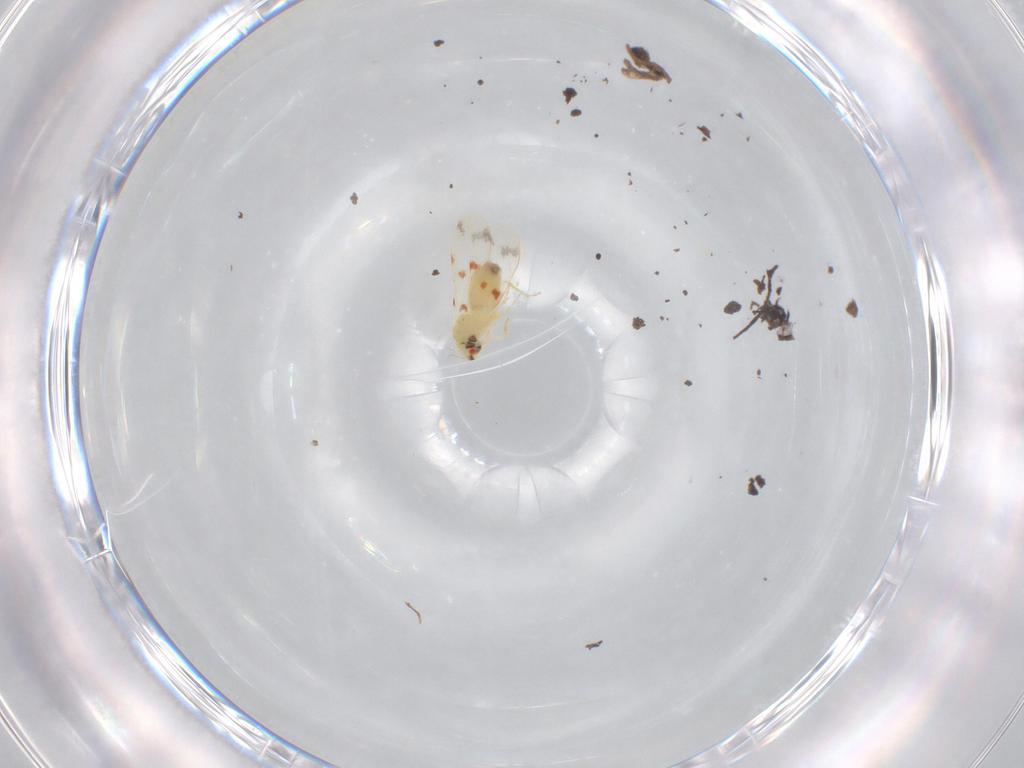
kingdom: Animalia
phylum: Arthropoda
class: Insecta
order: Hemiptera
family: Aleyrodidae
